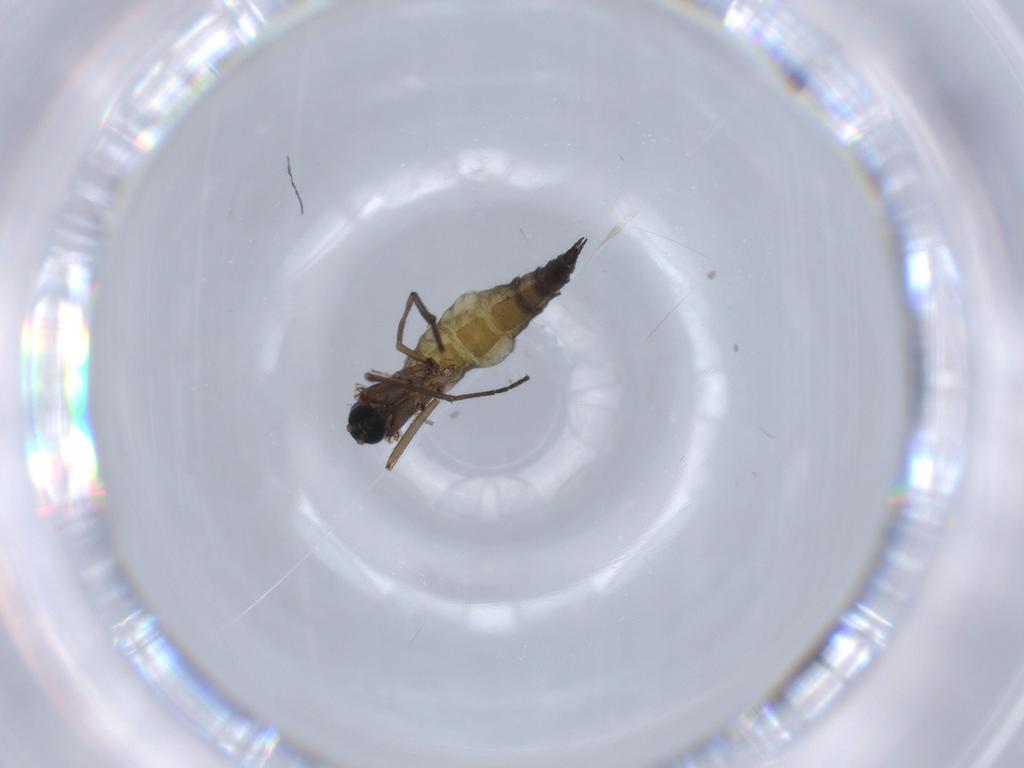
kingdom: Animalia
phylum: Arthropoda
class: Insecta
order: Diptera
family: Sciaridae
